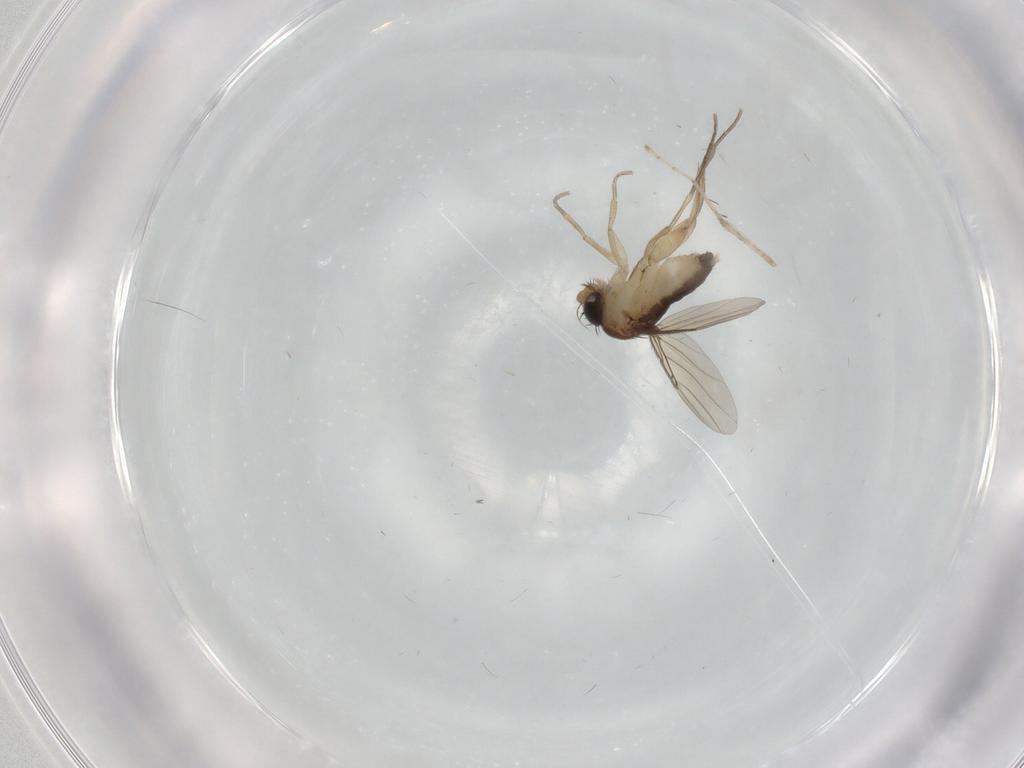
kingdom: Animalia
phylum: Arthropoda
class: Insecta
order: Diptera
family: Phoridae
